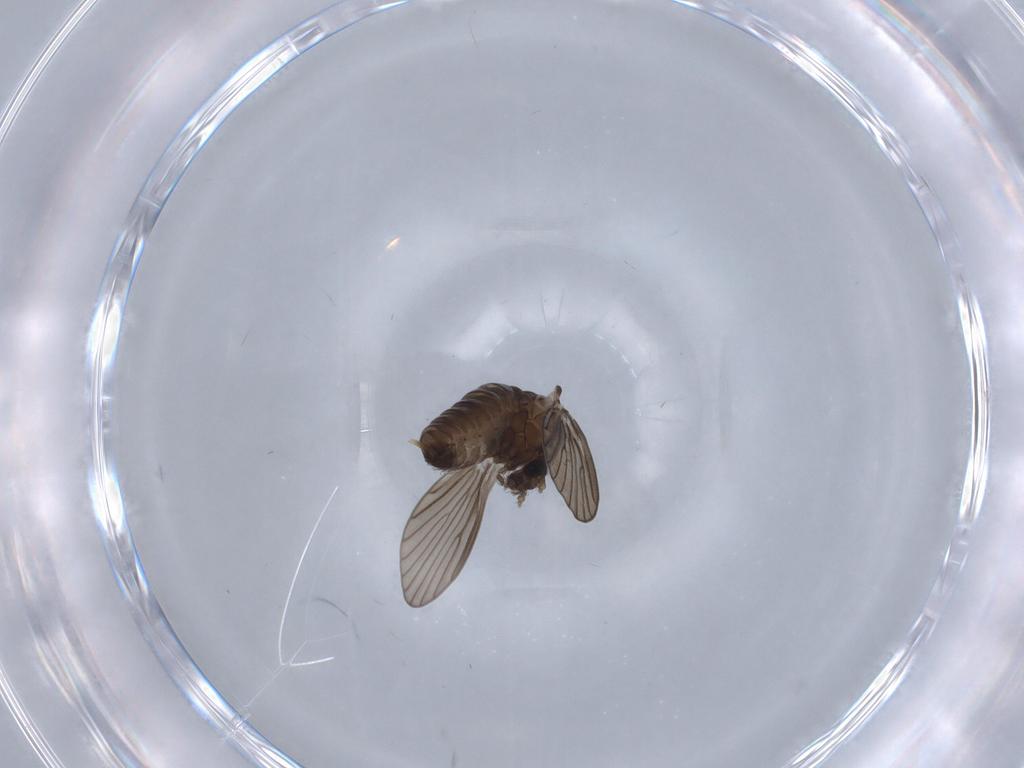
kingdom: Animalia
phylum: Arthropoda
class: Insecta
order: Diptera
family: Psychodidae
